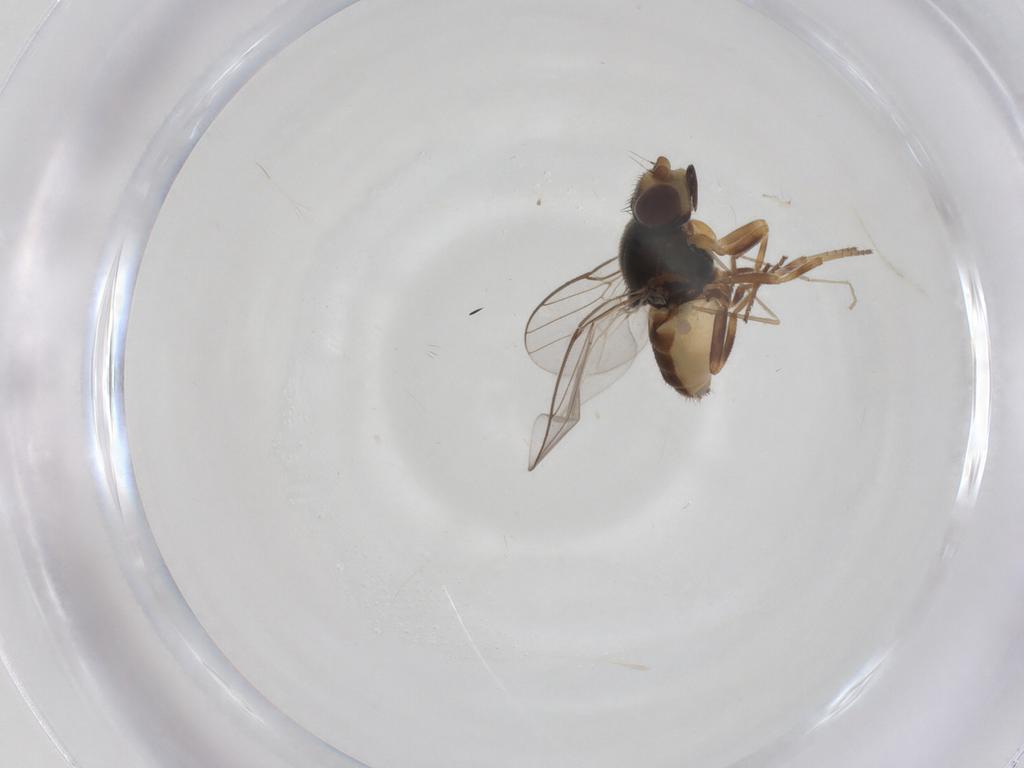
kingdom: Animalia
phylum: Arthropoda
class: Insecta
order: Diptera
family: Chloropidae
